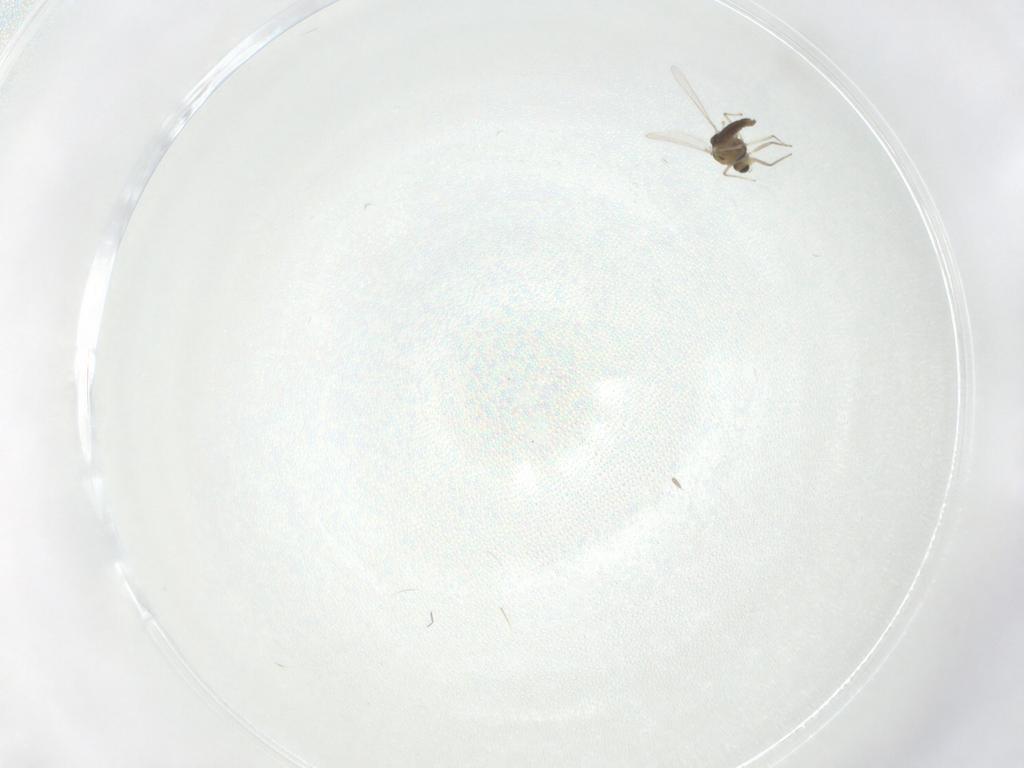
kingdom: Animalia
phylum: Arthropoda
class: Insecta
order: Diptera
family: Chironomidae
